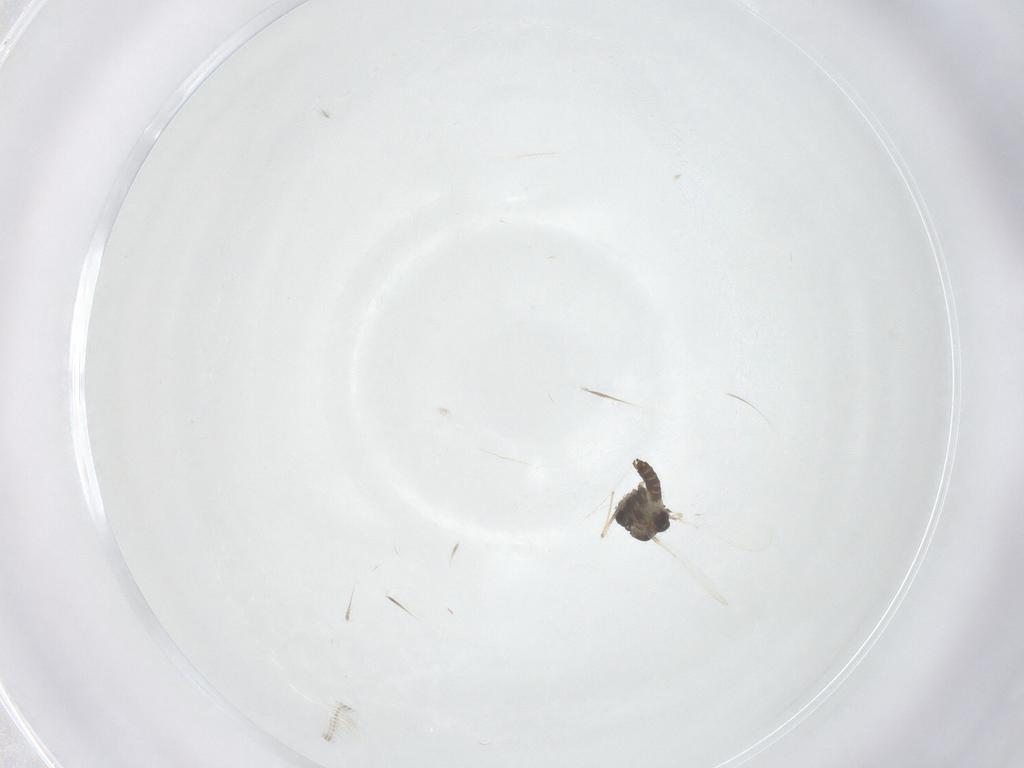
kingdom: Animalia
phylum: Arthropoda
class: Insecta
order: Diptera
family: Chironomidae
